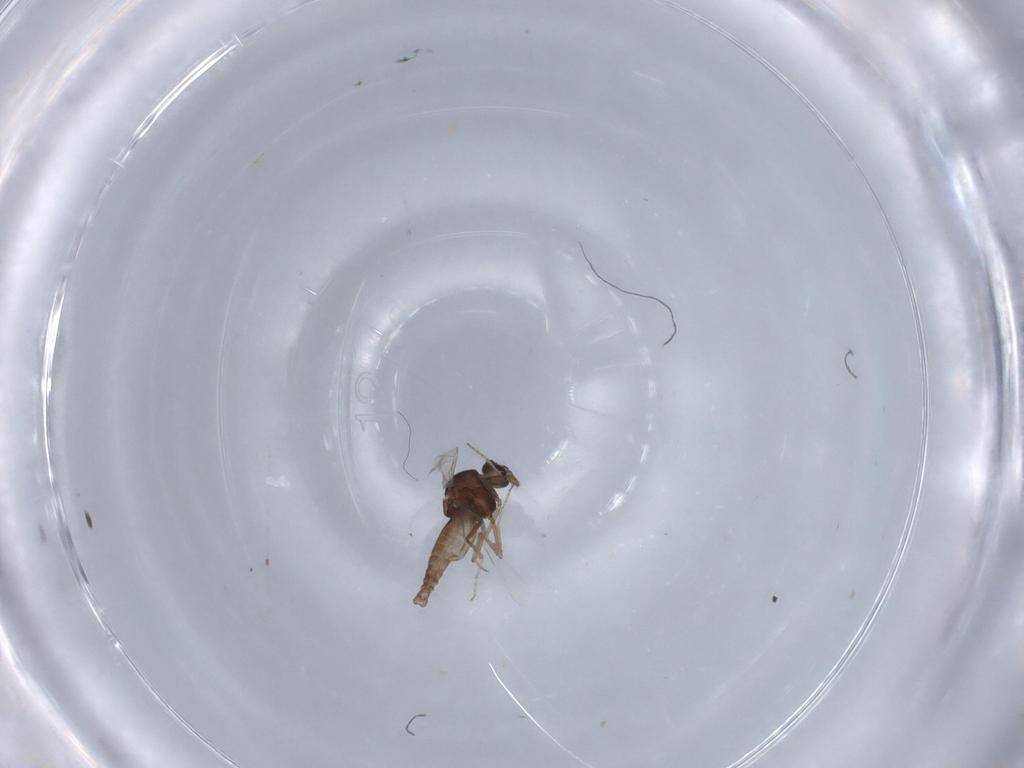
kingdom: Animalia
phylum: Arthropoda
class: Insecta
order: Diptera
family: Ceratopogonidae
